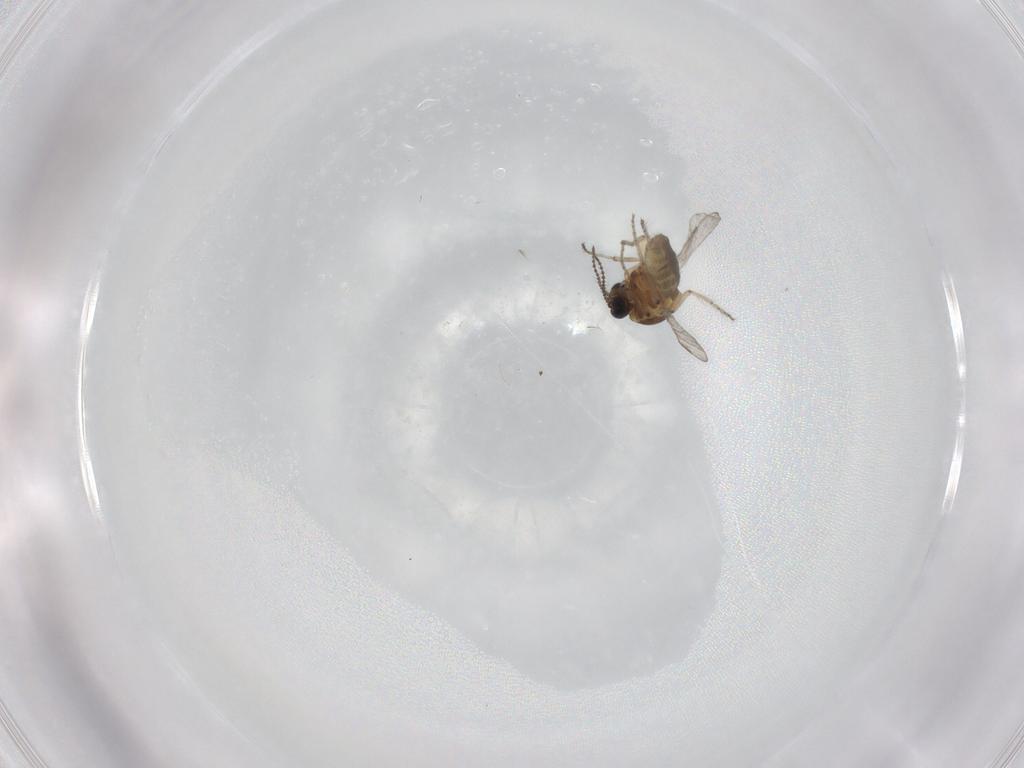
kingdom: Animalia
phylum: Arthropoda
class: Insecta
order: Diptera
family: Ceratopogonidae
